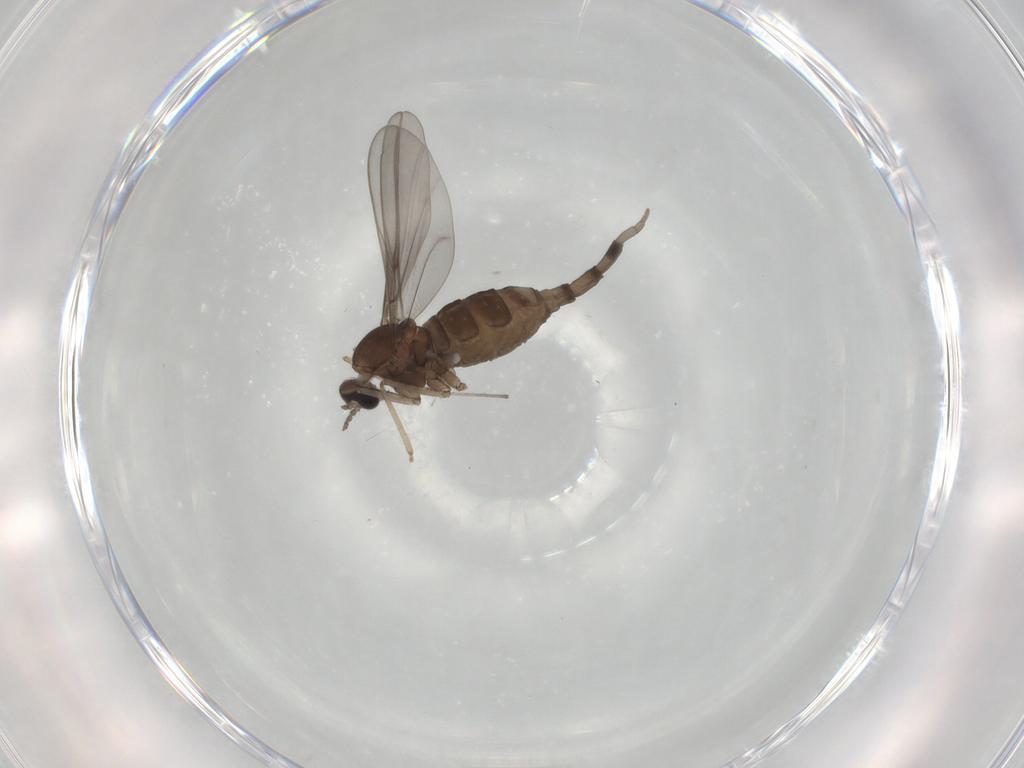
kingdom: Animalia
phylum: Arthropoda
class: Insecta
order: Diptera
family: Cecidomyiidae
